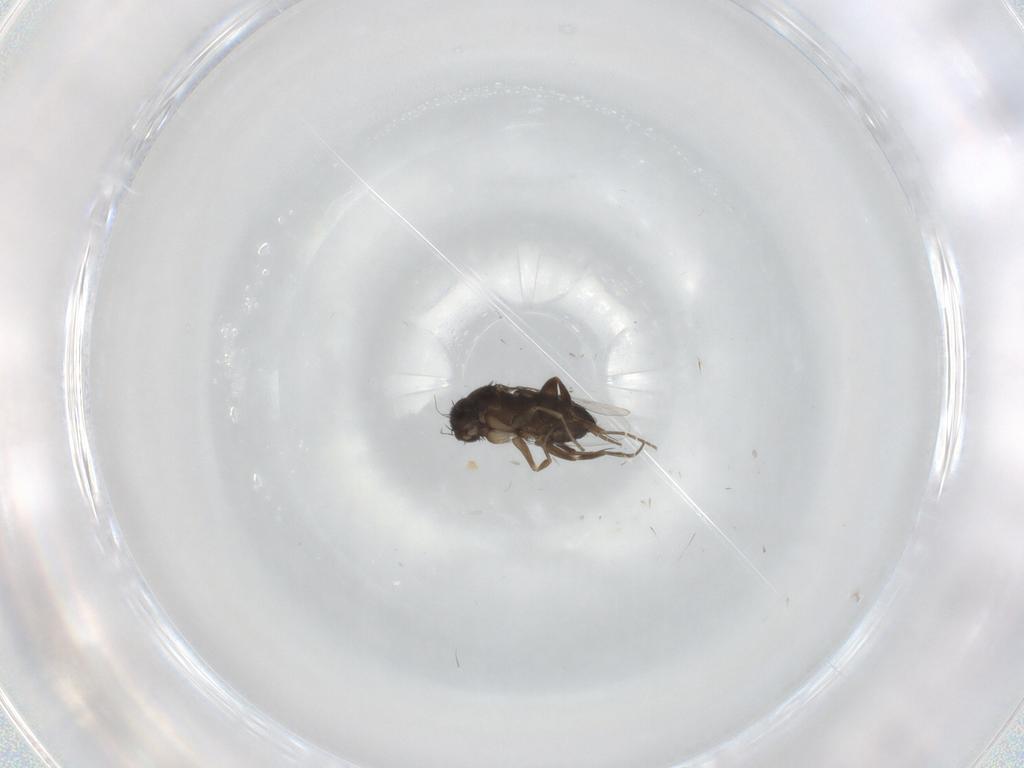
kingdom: Animalia
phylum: Arthropoda
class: Insecta
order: Diptera
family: Phoridae
